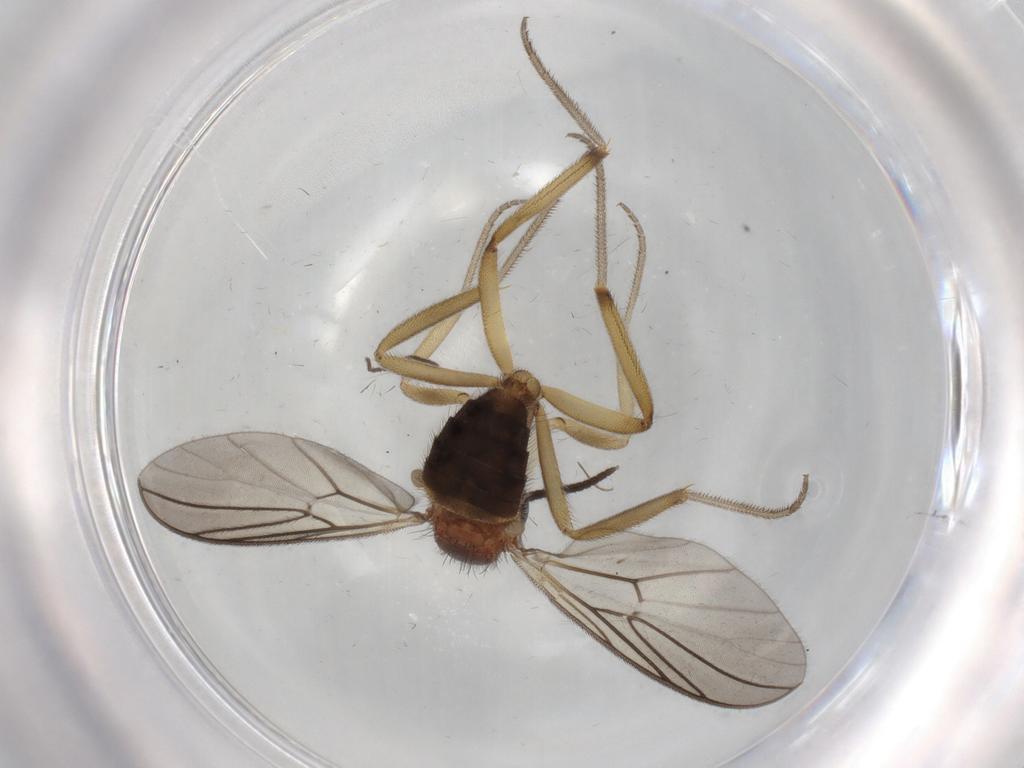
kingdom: Animalia
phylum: Arthropoda
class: Insecta
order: Diptera
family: Cecidomyiidae
